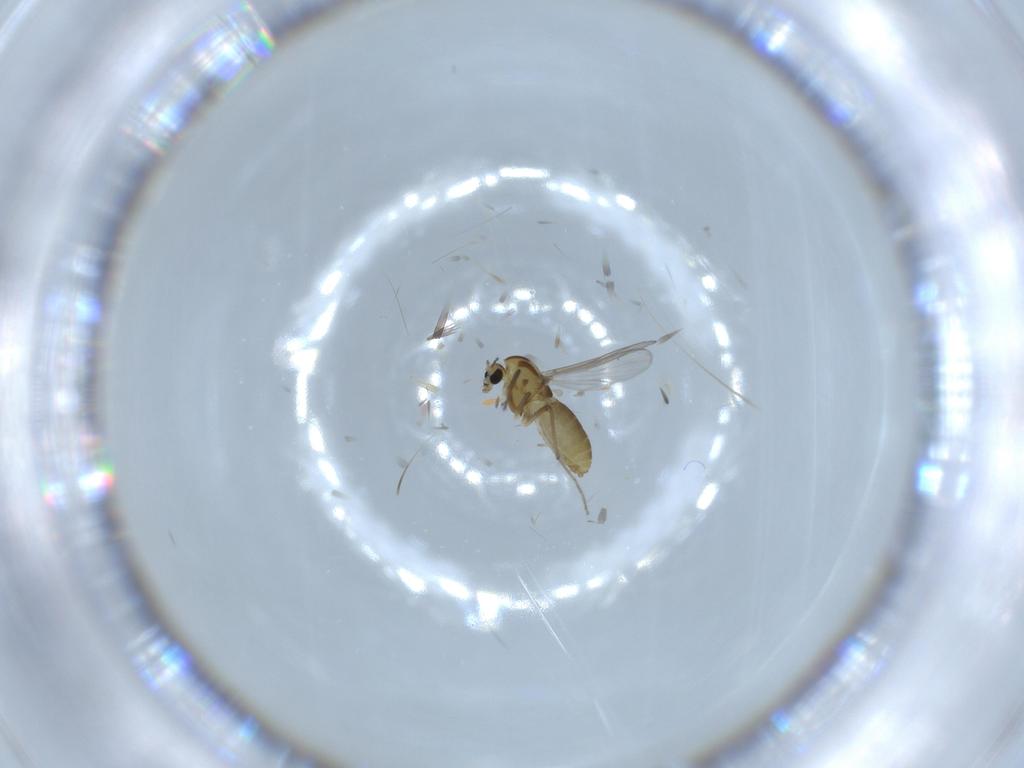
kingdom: Animalia
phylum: Arthropoda
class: Insecta
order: Diptera
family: Chironomidae
